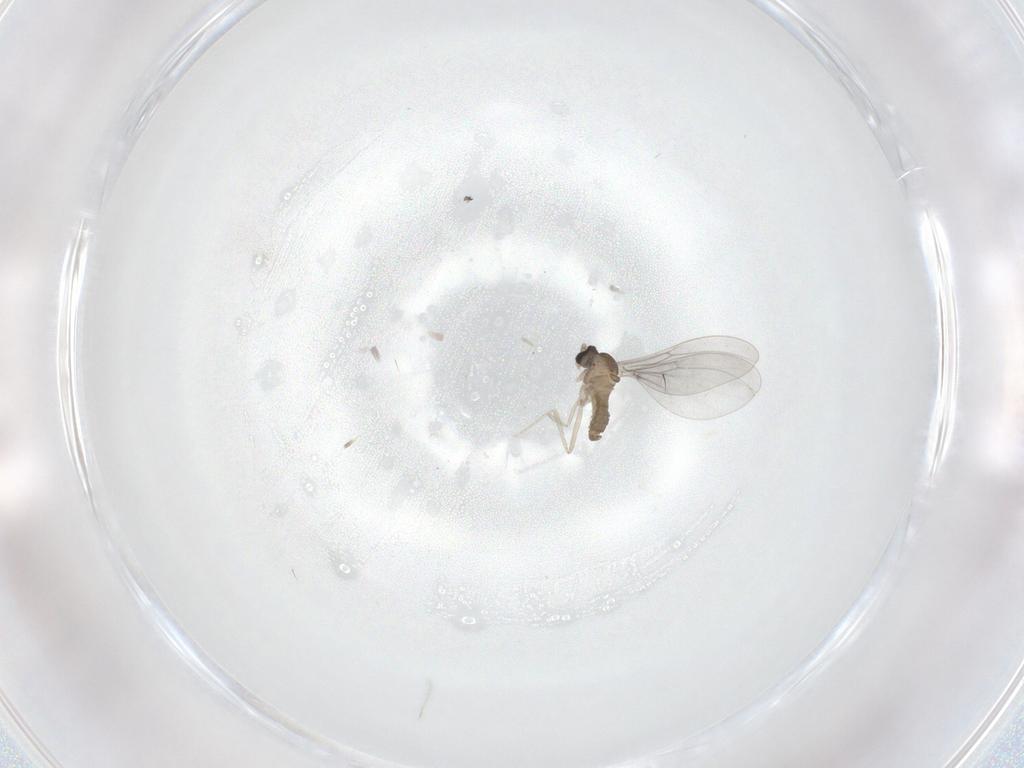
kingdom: Animalia
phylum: Arthropoda
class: Insecta
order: Diptera
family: Cecidomyiidae
